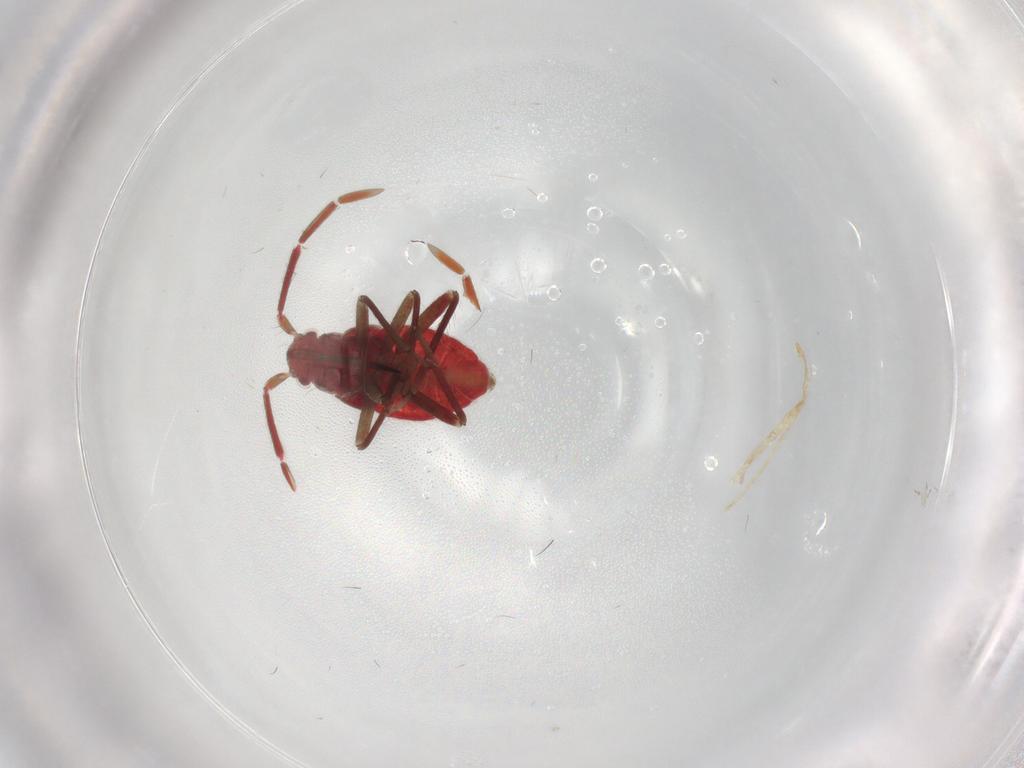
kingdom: Animalia
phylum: Arthropoda
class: Insecta
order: Hemiptera
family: Miridae
